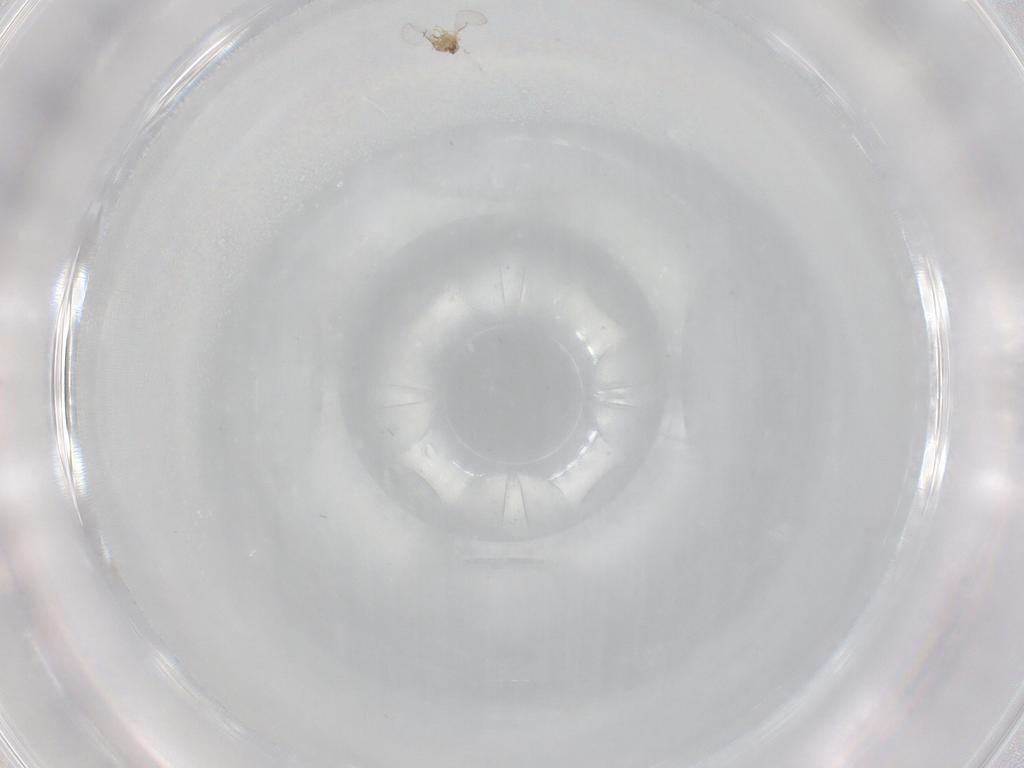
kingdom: Animalia
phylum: Arthropoda
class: Insecta
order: Hymenoptera
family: Trichogrammatidae
